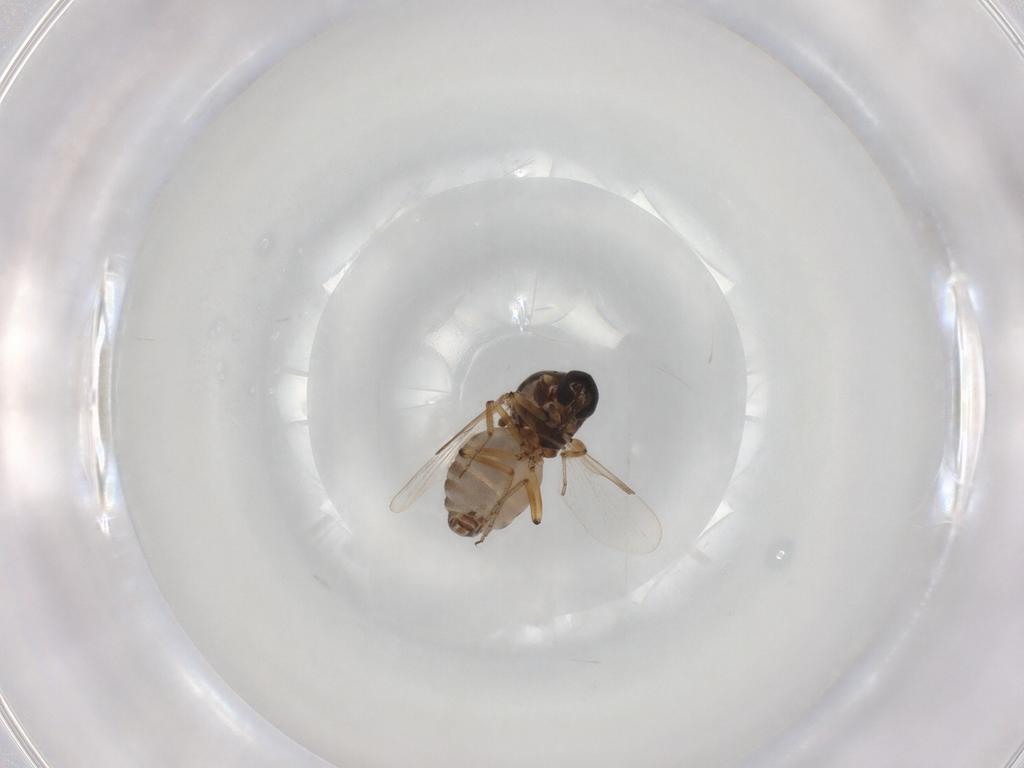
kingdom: Animalia
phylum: Arthropoda
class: Insecta
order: Diptera
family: Ceratopogonidae
